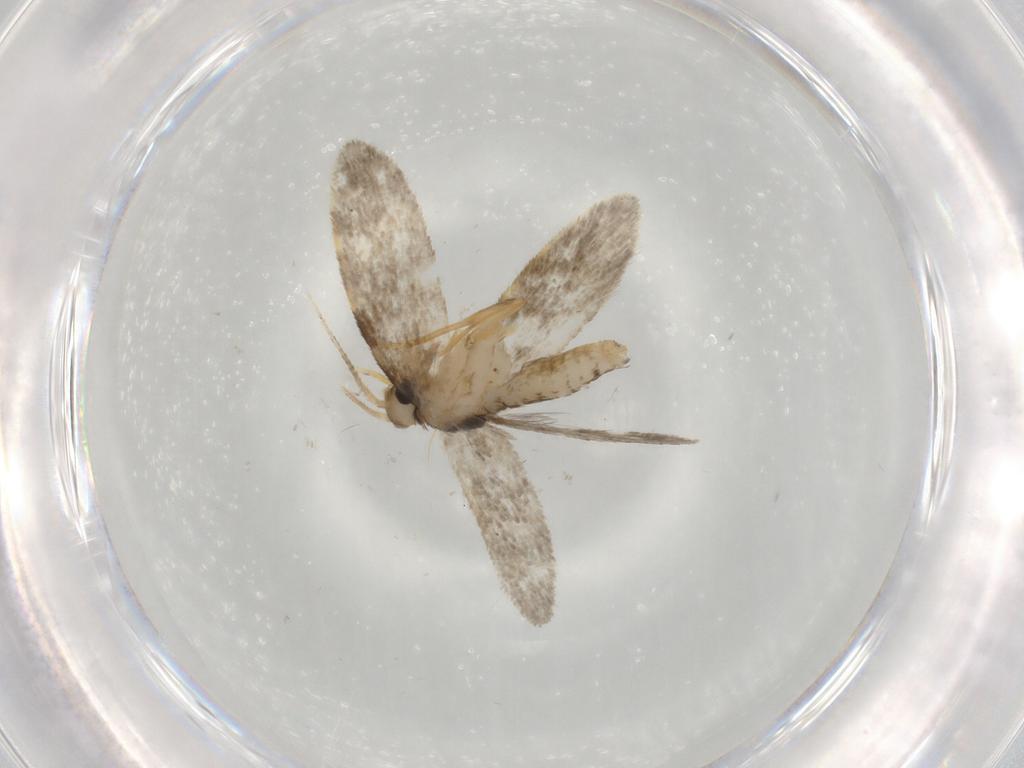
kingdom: Animalia
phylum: Arthropoda
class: Insecta
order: Lepidoptera
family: Psychidae
